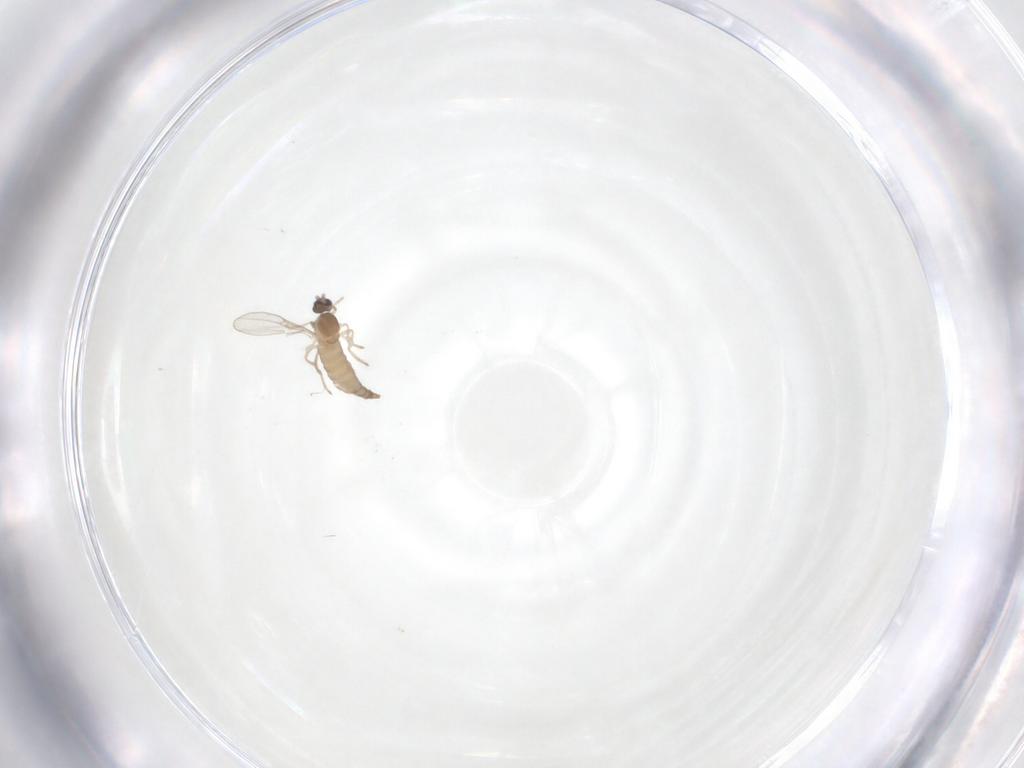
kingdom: Animalia
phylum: Arthropoda
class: Insecta
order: Diptera
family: Cecidomyiidae
